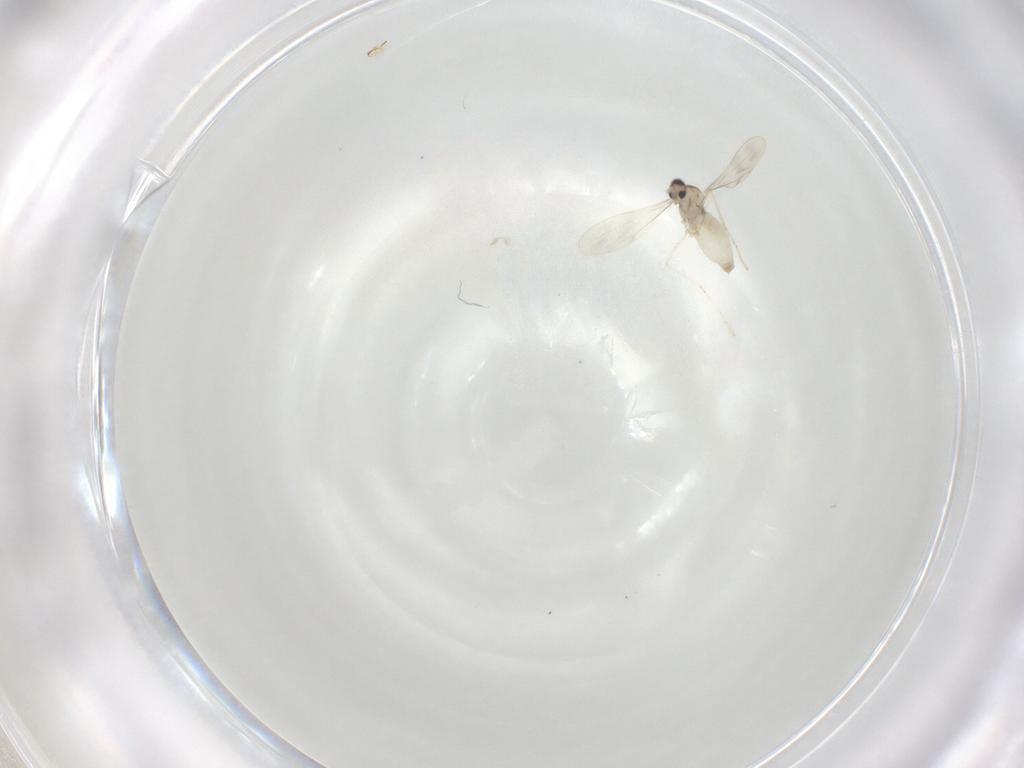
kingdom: Animalia
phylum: Arthropoda
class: Insecta
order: Diptera
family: Cecidomyiidae
